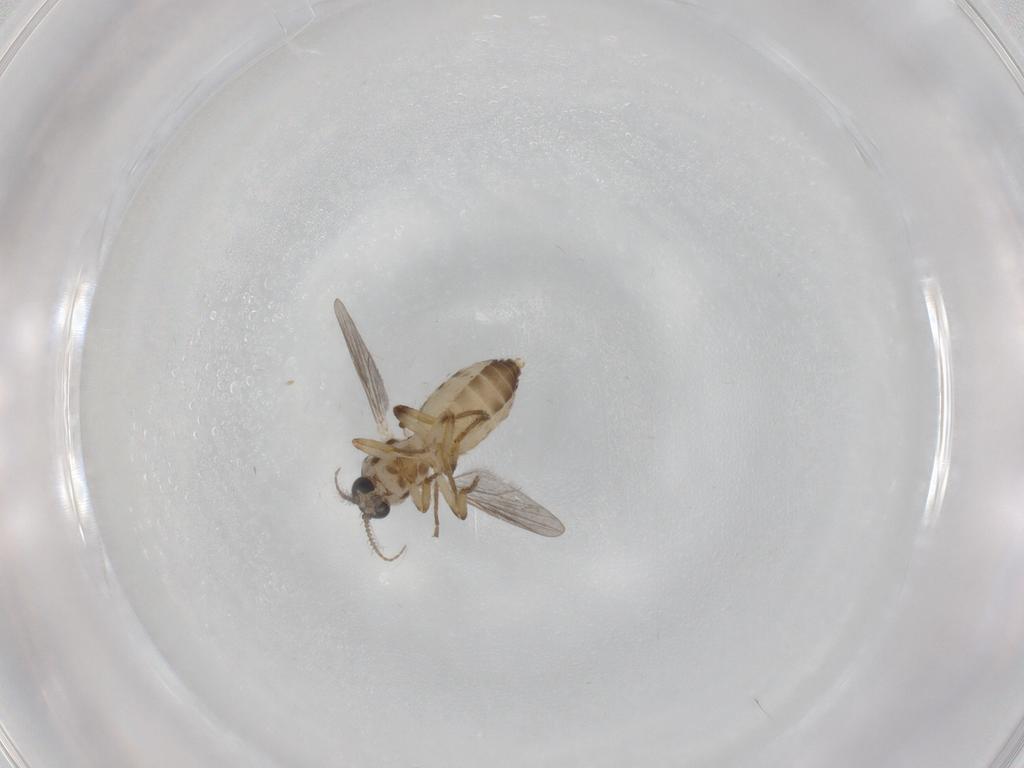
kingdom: Animalia
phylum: Arthropoda
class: Insecta
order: Diptera
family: Ceratopogonidae
